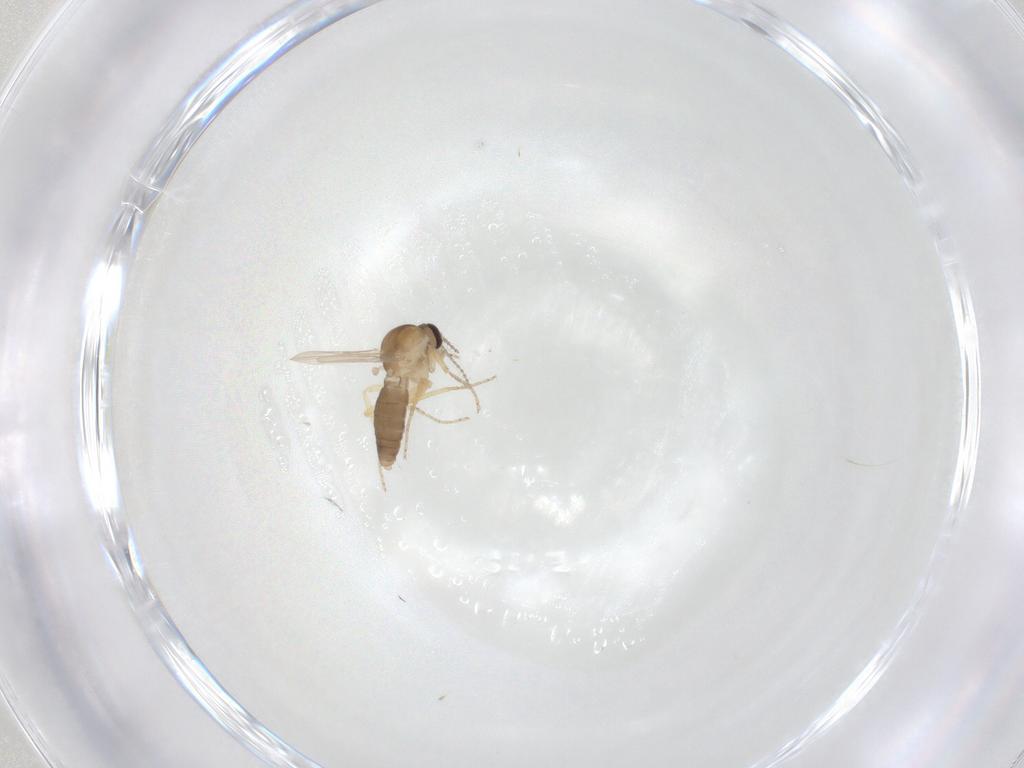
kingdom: Animalia
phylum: Arthropoda
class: Insecta
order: Diptera
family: Ceratopogonidae
